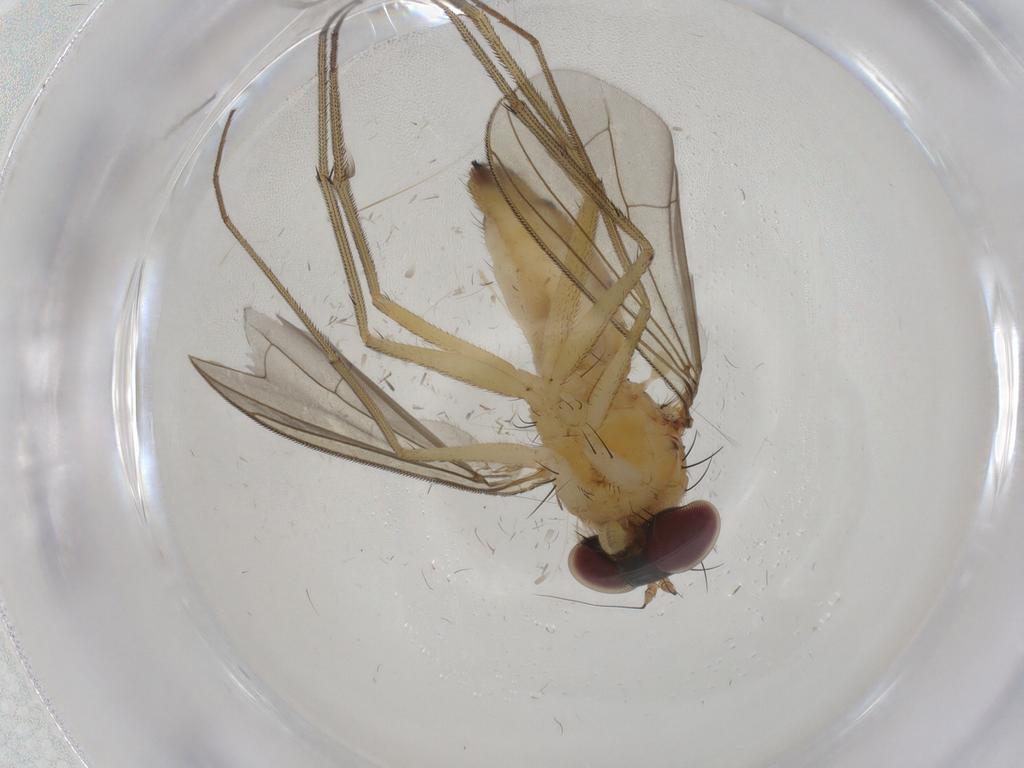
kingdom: Animalia
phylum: Arthropoda
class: Insecta
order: Diptera
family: Dolichopodidae
